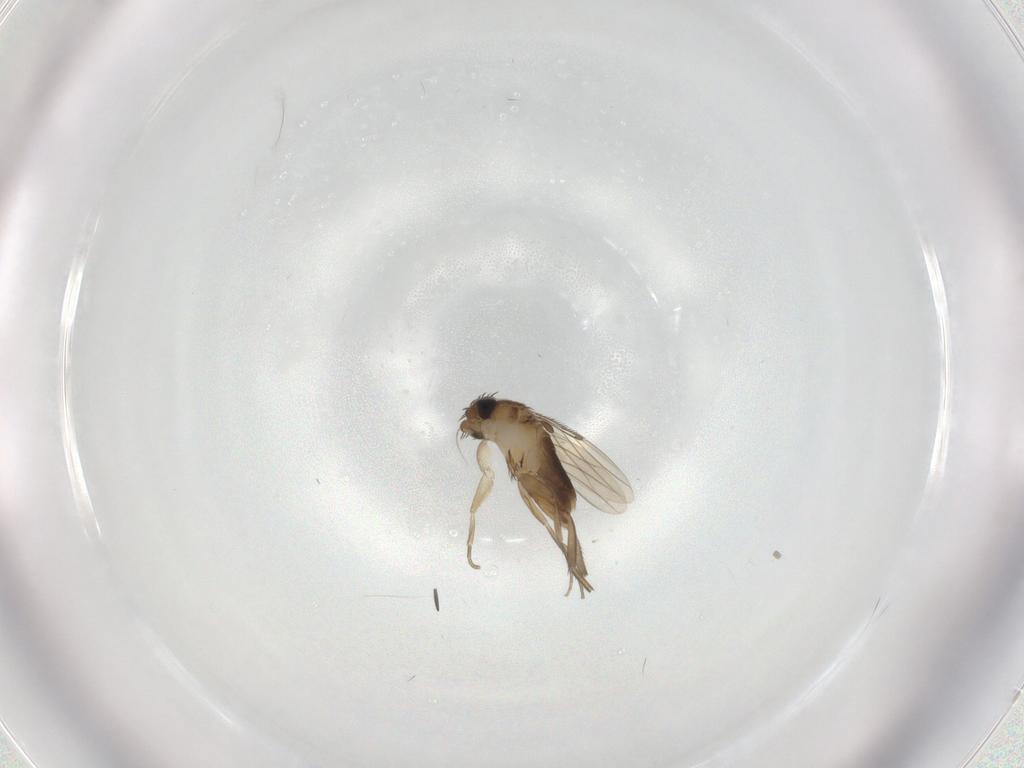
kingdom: Animalia
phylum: Arthropoda
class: Insecta
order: Diptera
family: Phoridae
